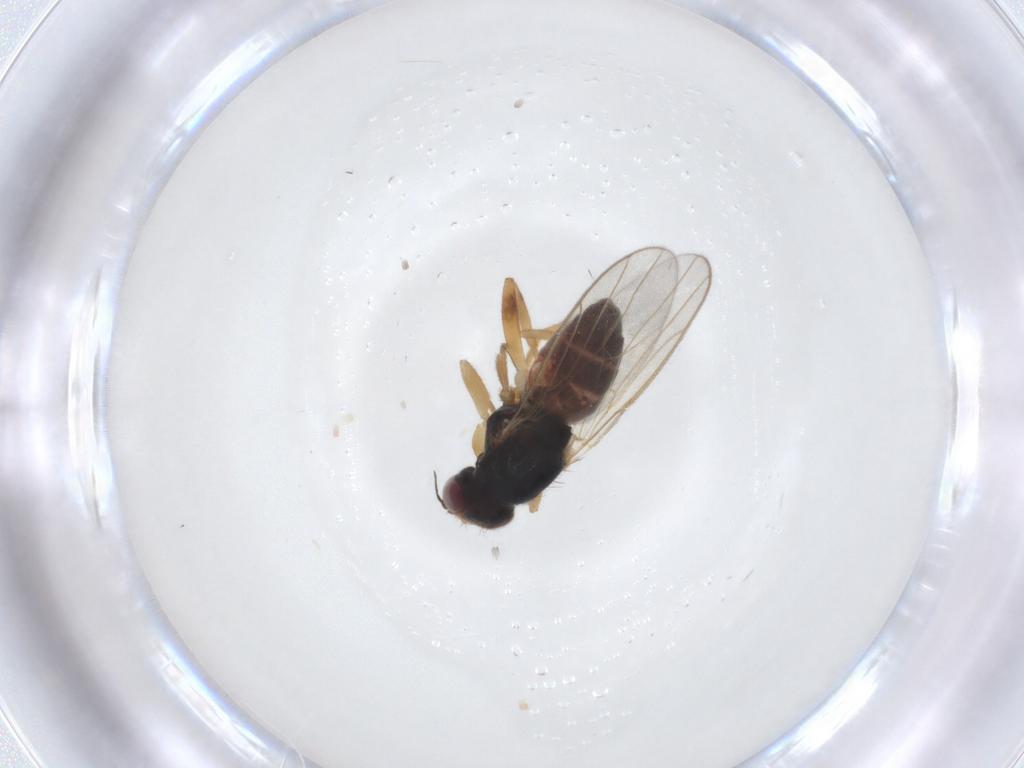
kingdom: Animalia
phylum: Arthropoda
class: Insecta
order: Diptera
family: Chloropidae
